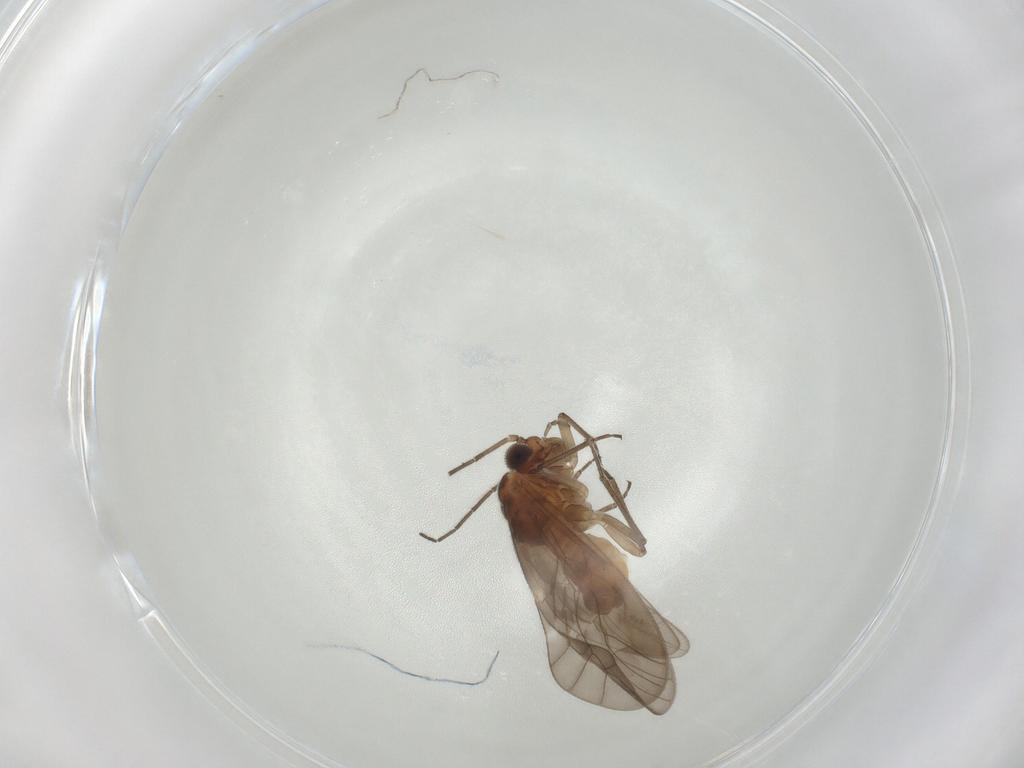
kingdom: Animalia
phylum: Arthropoda
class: Insecta
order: Psocodea
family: Caeciliusidae
